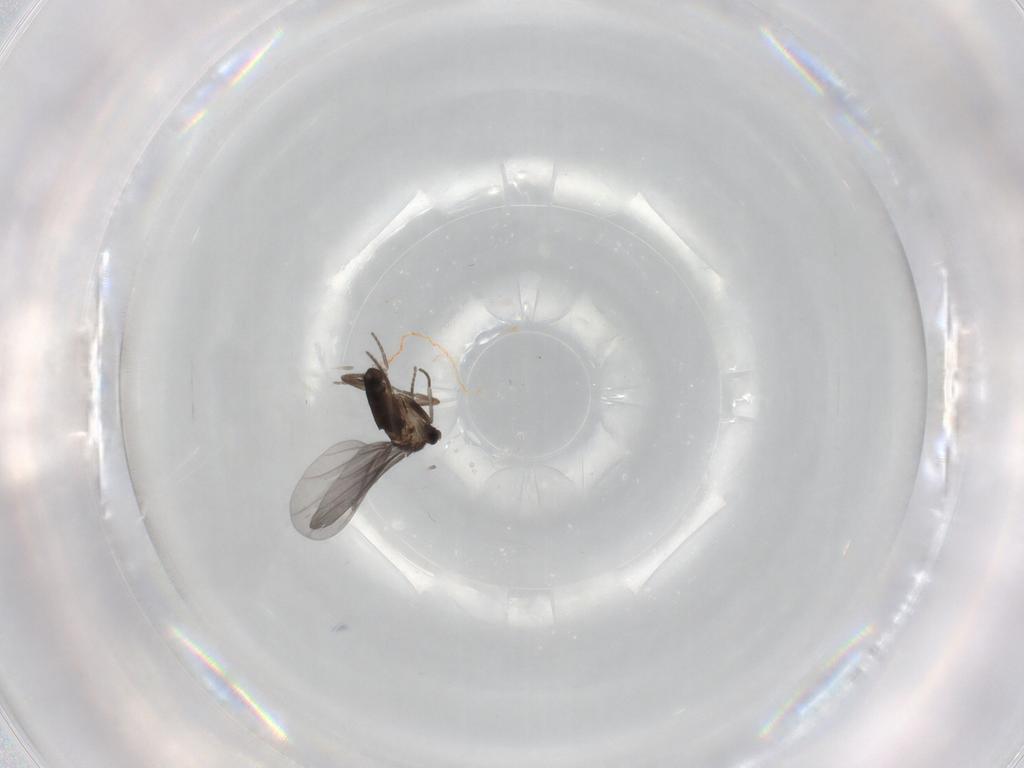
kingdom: Animalia
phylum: Arthropoda
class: Insecta
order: Diptera
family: Phoridae
